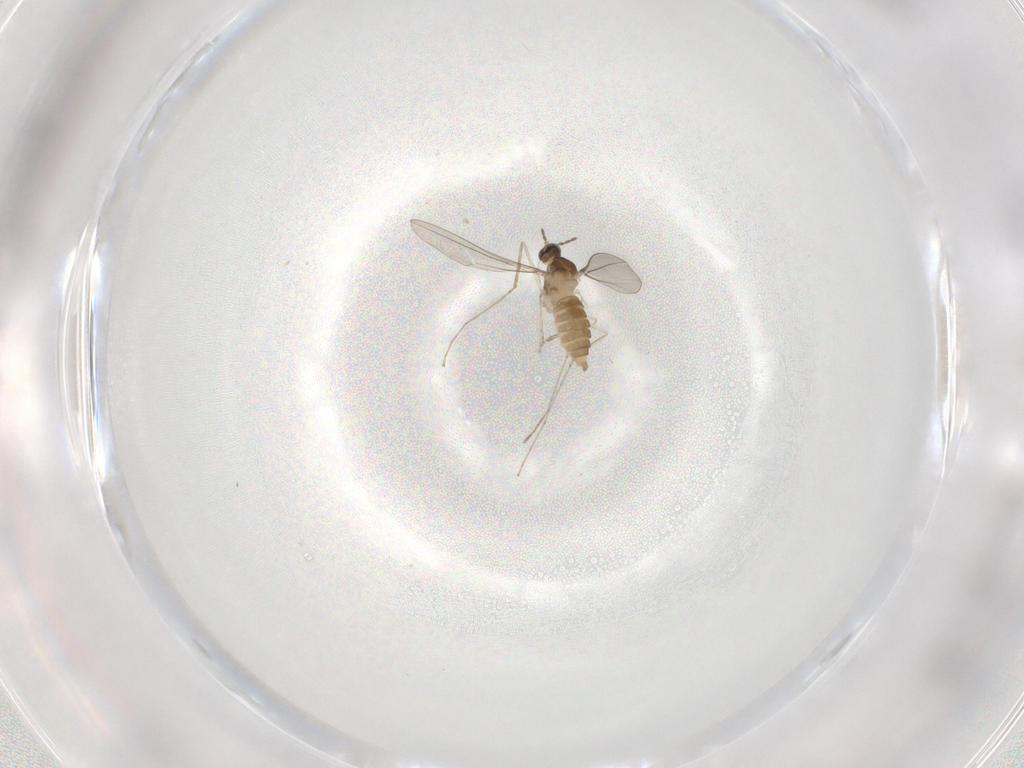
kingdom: Animalia
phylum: Arthropoda
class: Insecta
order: Diptera
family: Cecidomyiidae
